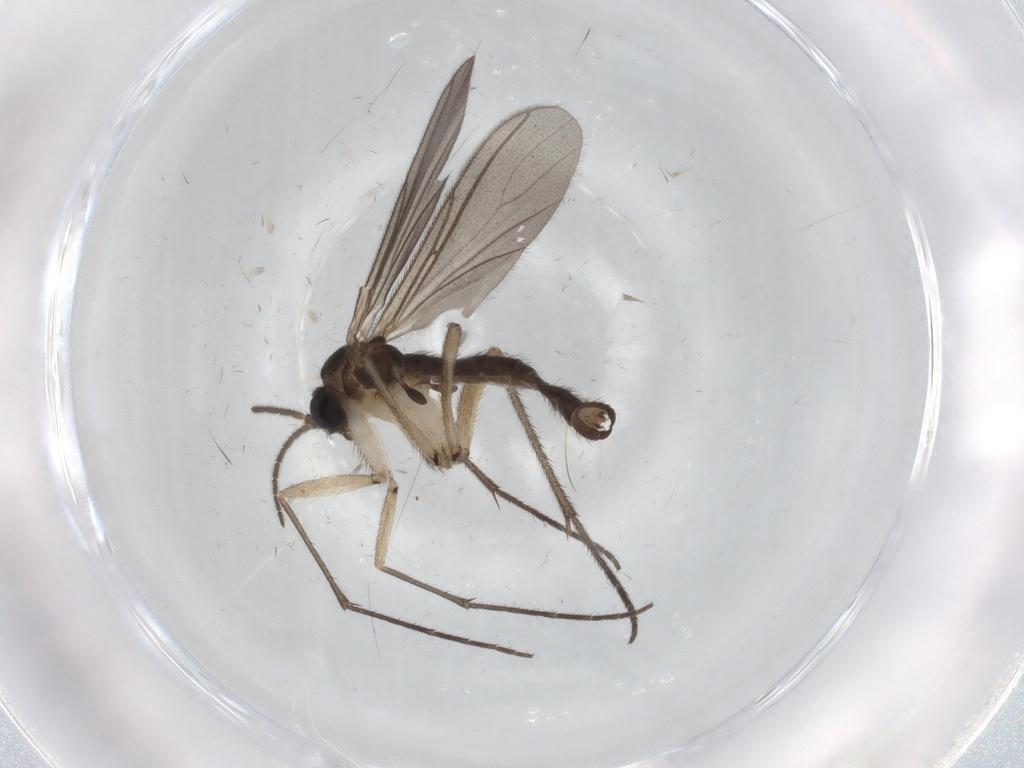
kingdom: Animalia
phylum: Arthropoda
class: Insecta
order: Diptera
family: Sciaridae
